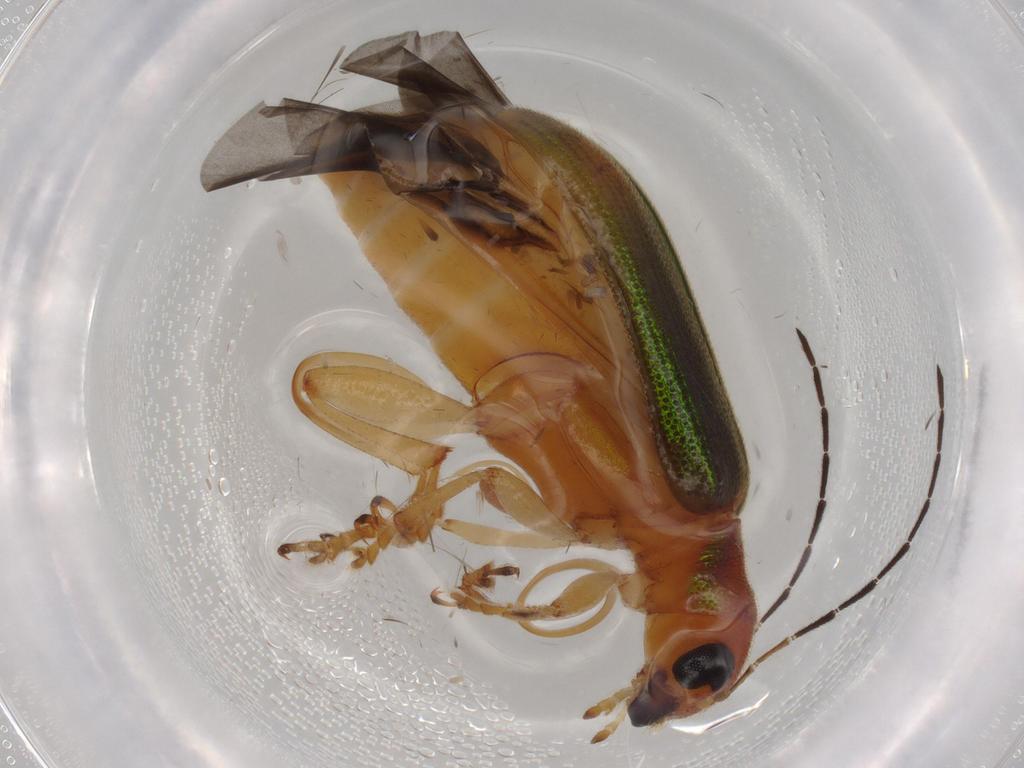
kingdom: Animalia
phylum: Arthropoda
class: Insecta
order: Coleoptera
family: Chrysomelidae
